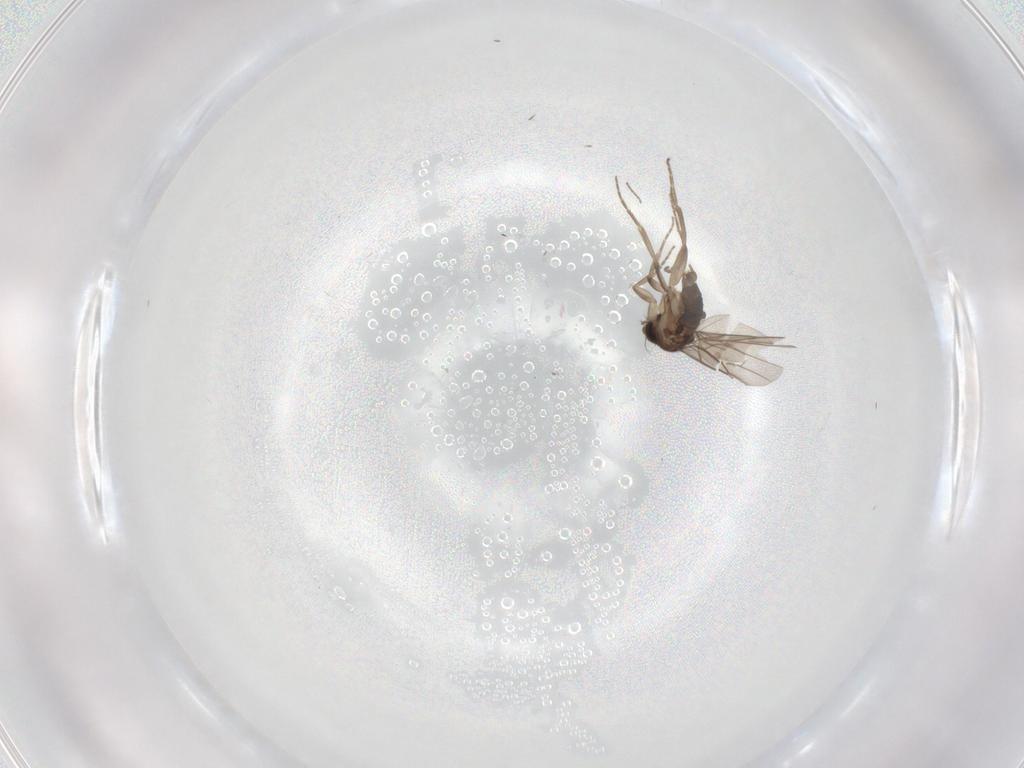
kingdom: Animalia
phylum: Arthropoda
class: Insecta
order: Diptera
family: Phoridae
